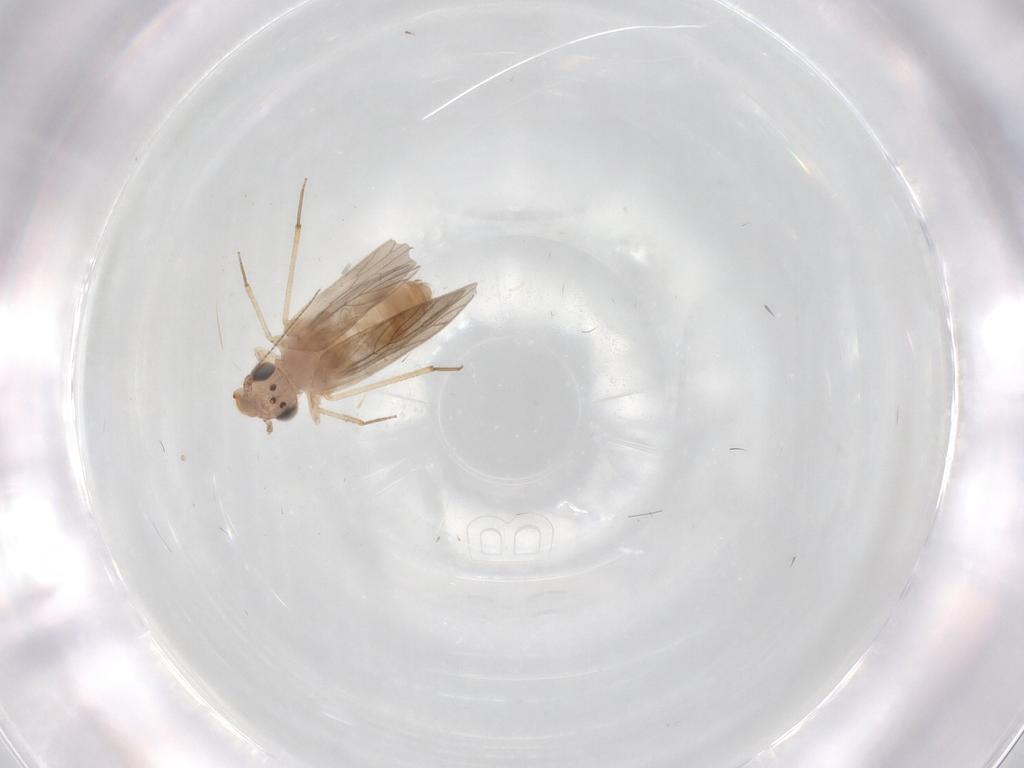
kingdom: Animalia
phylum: Arthropoda
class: Insecta
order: Psocodea
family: Lepidopsocidae
